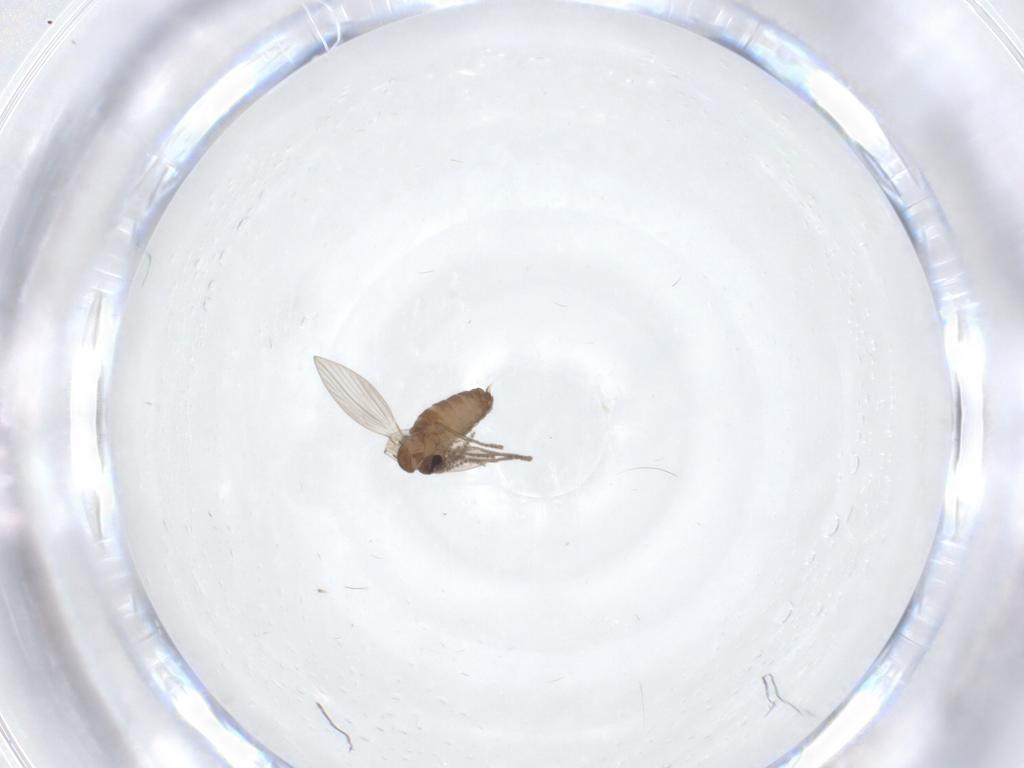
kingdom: Animalia
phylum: Arthropoda
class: Insecta
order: Diptera
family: Psychodidae
